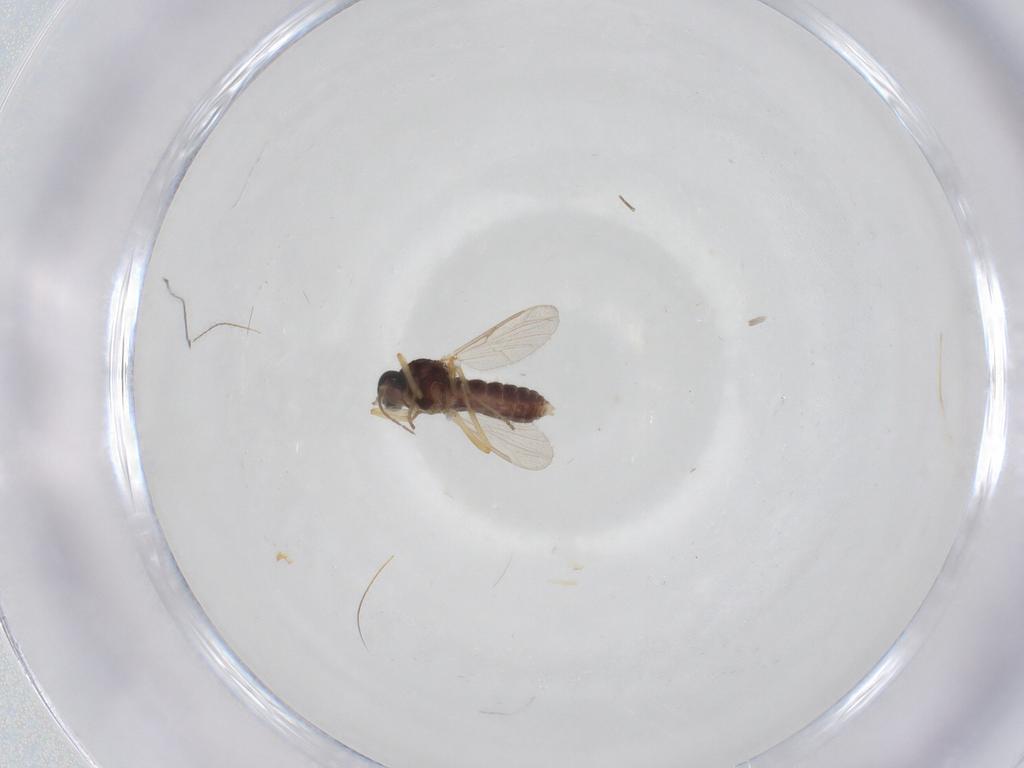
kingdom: Animalia
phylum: Arthropoda
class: Insecta
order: Diptera
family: Ceratopogonidae
